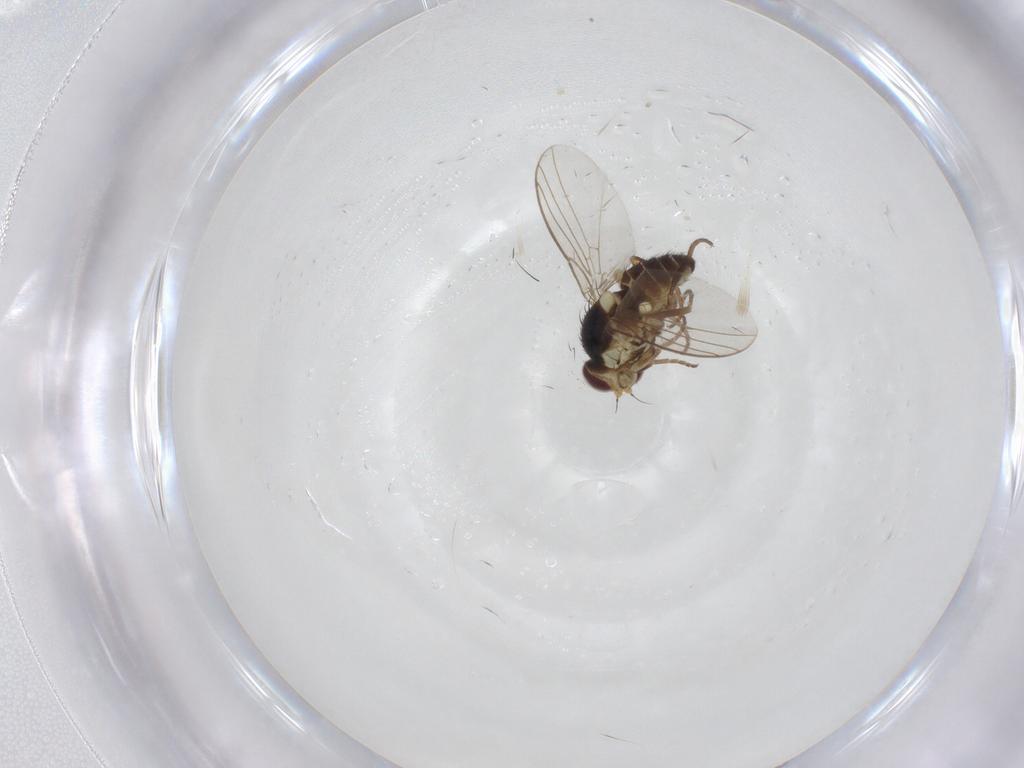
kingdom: Animalia
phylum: Arthropoda
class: Insecta
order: Diptera
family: Agromyzidae
